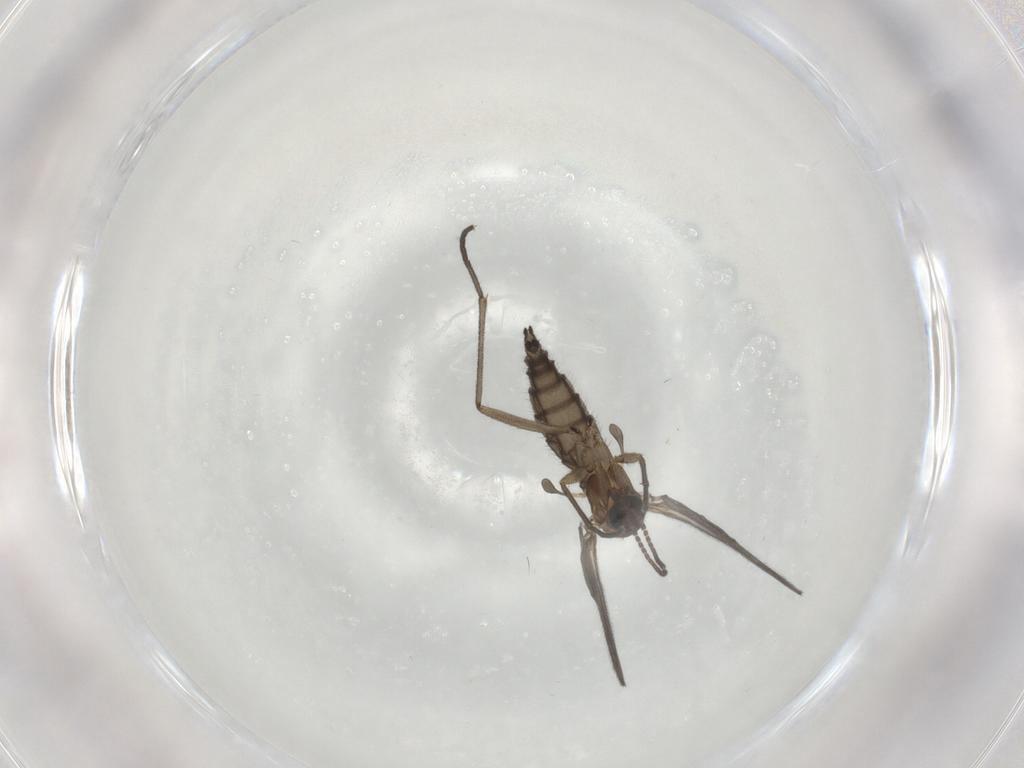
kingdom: Animalia
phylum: Arthropoda
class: Insecta
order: Diptera
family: Sciaridae
